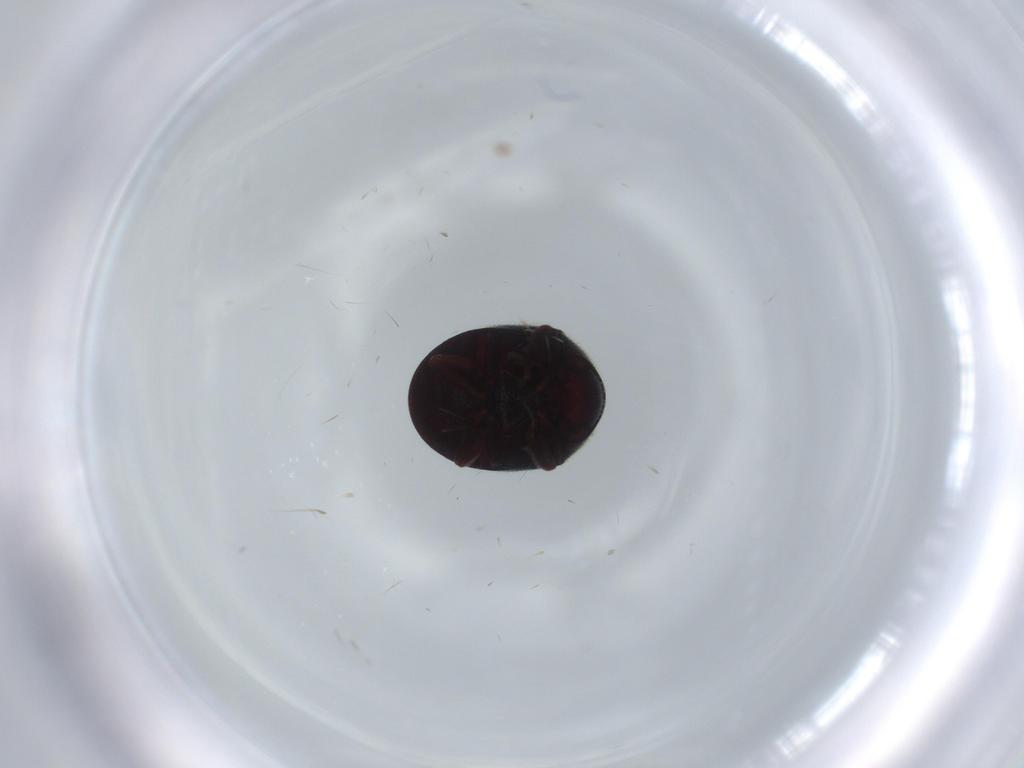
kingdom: Animalia
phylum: Arthropoda
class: Insecta
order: Coleoptera
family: Ptinidae
